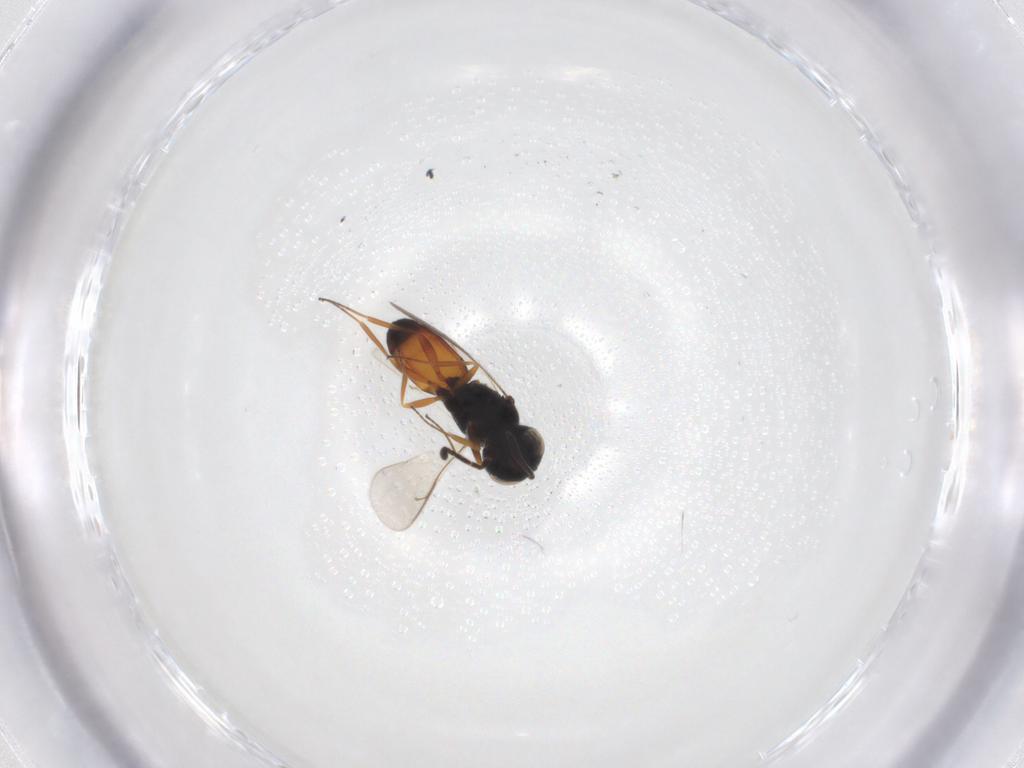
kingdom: Animalia
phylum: Arthropoda
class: Insecta
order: Hymenoptera
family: Scelionidae
